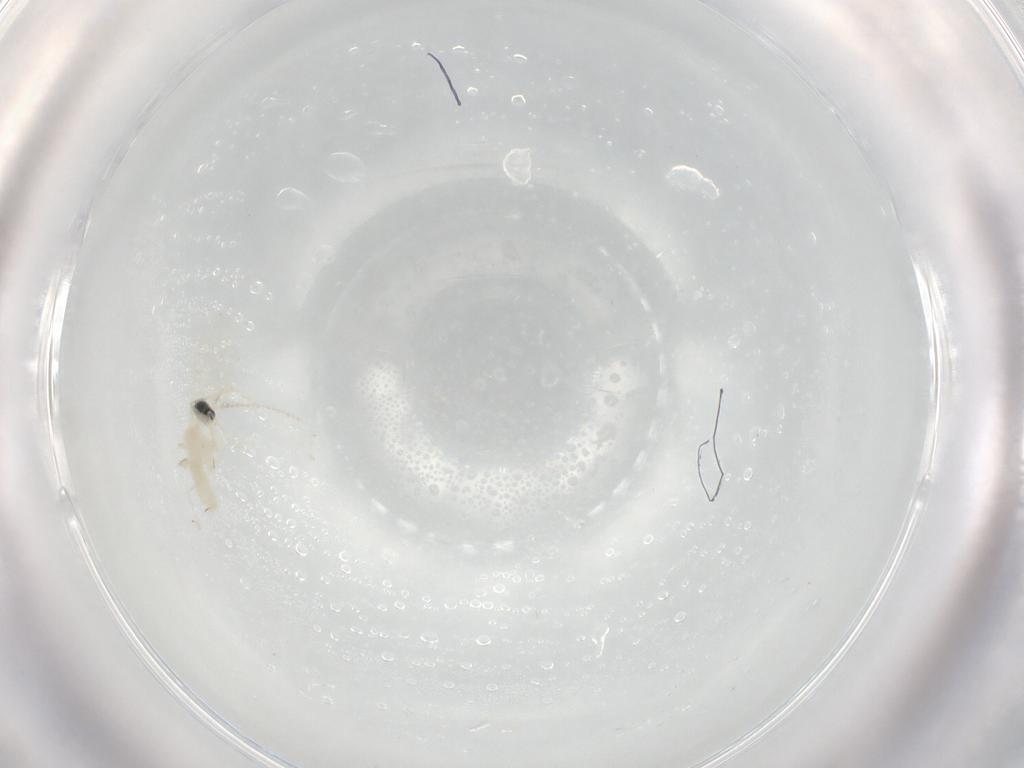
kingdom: Animalia
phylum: Arthropoda
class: Insecta
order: Diptera
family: Cecidomyiidae
